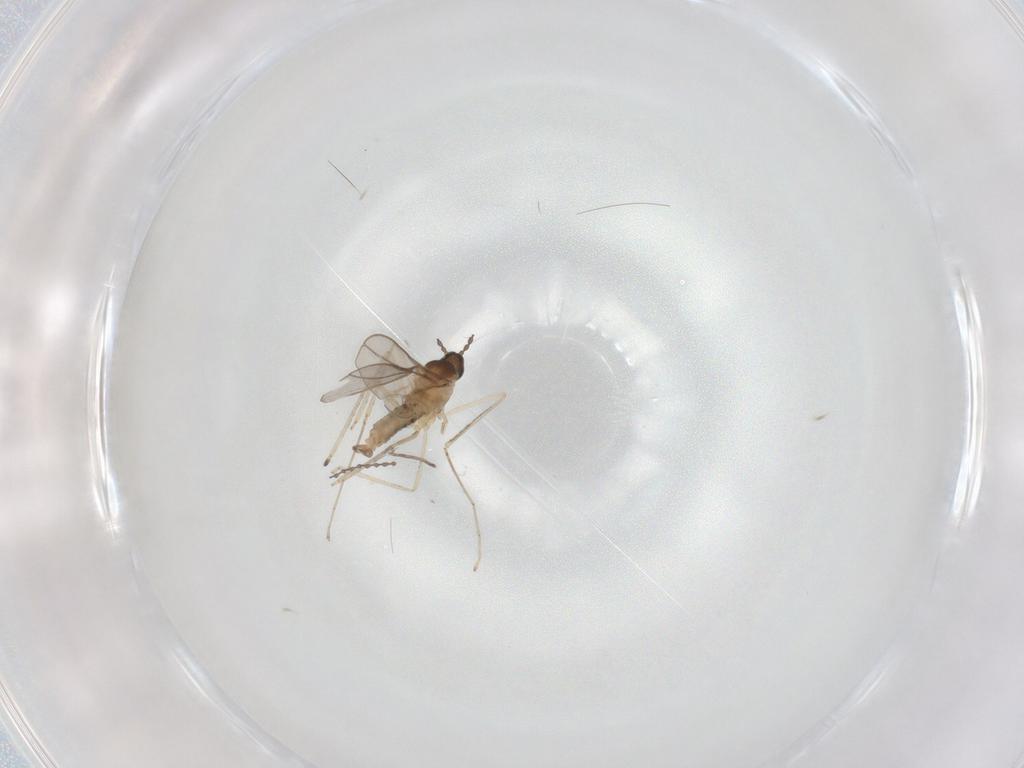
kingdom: Animalia
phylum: Arthropoda
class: Insecta
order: Diptera
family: Cecidomyiidae
